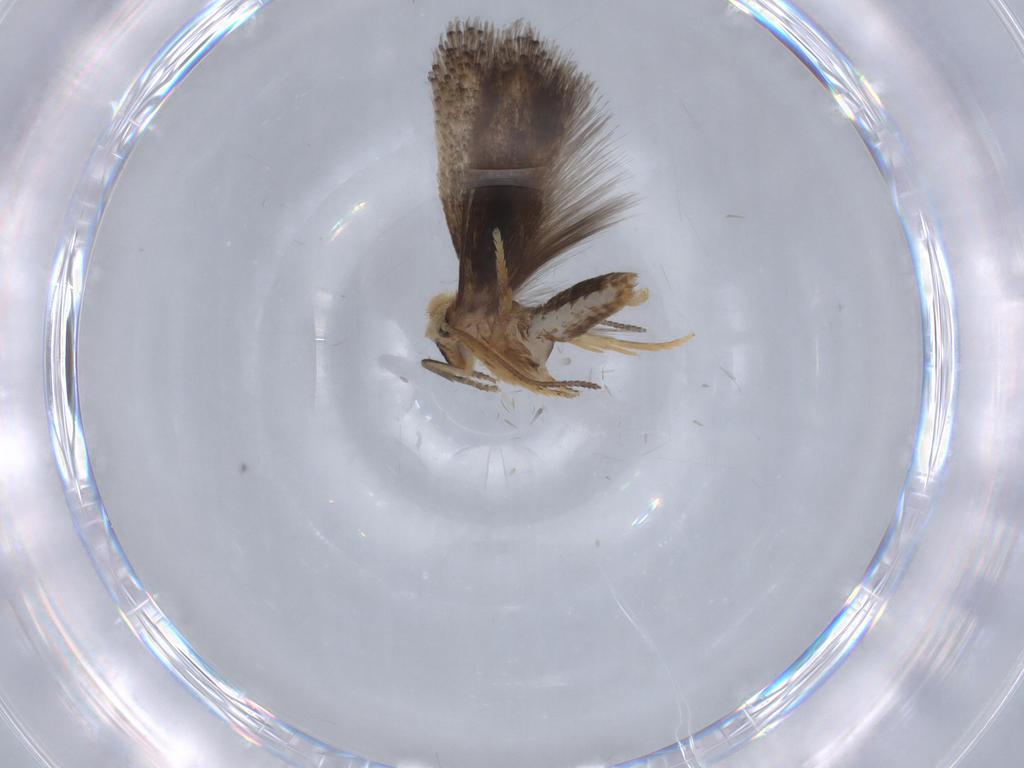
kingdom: Animalia
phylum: Arthropoda
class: Insecta
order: Lepidoptera
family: Nepticulidae
